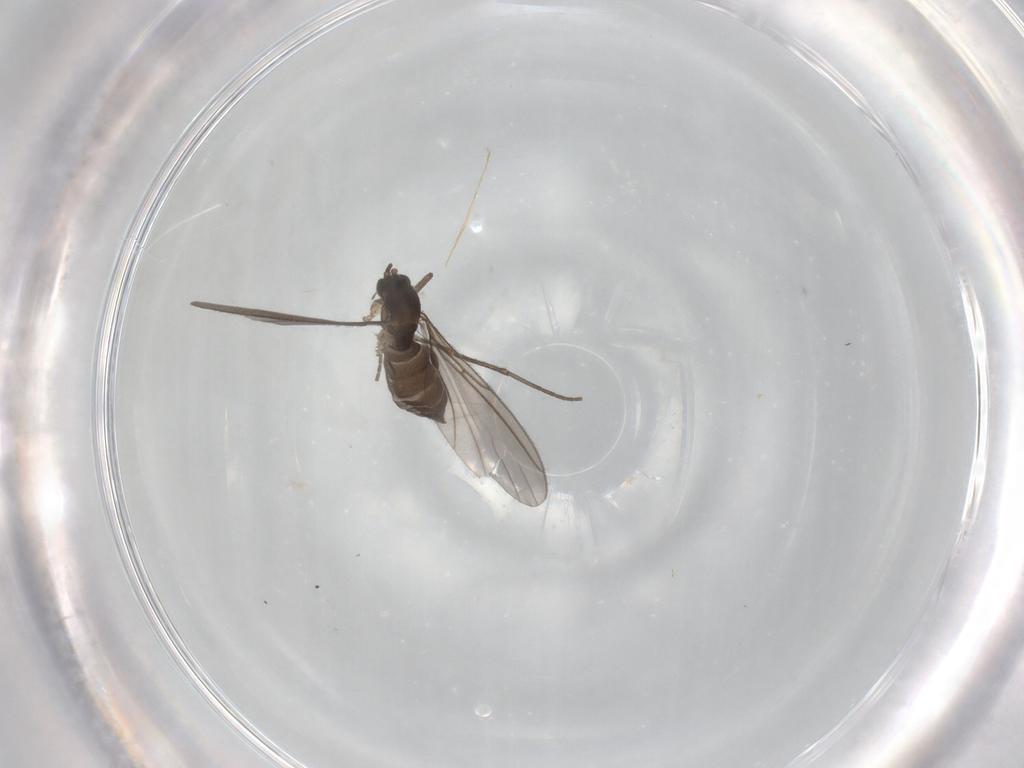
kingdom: Animalia
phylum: Arthropoda
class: Insecta
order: Diptera
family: Sciaridae
